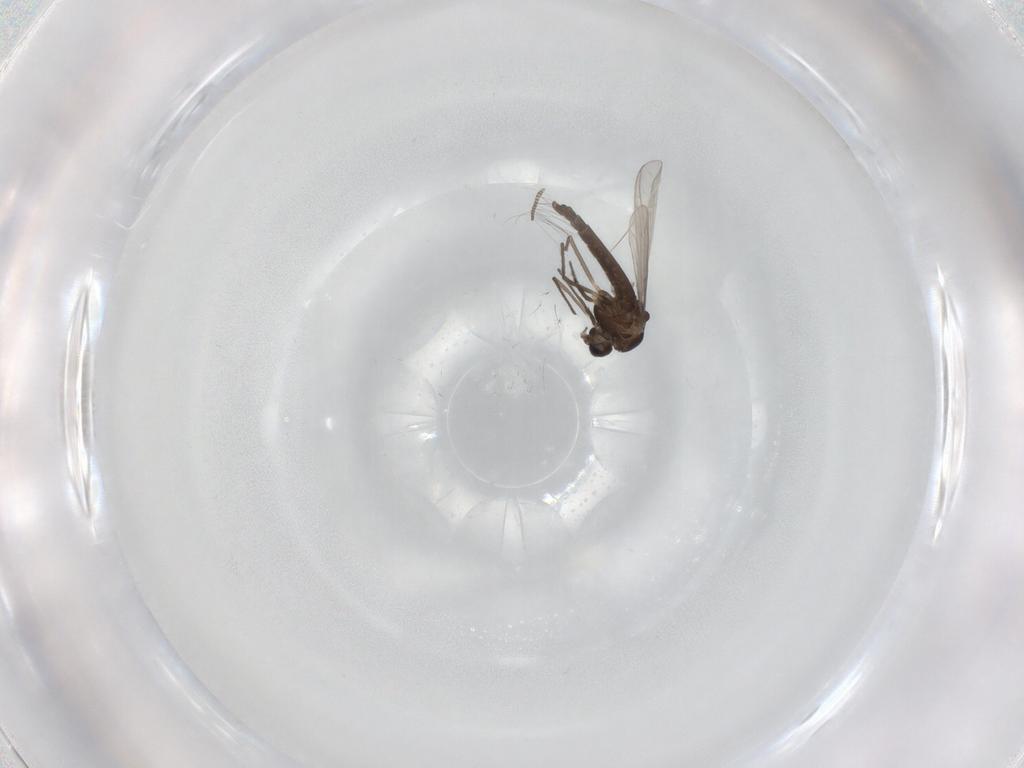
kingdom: Animalia
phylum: Arthropoda
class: Insecta
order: Diptera
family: Chironomidae
